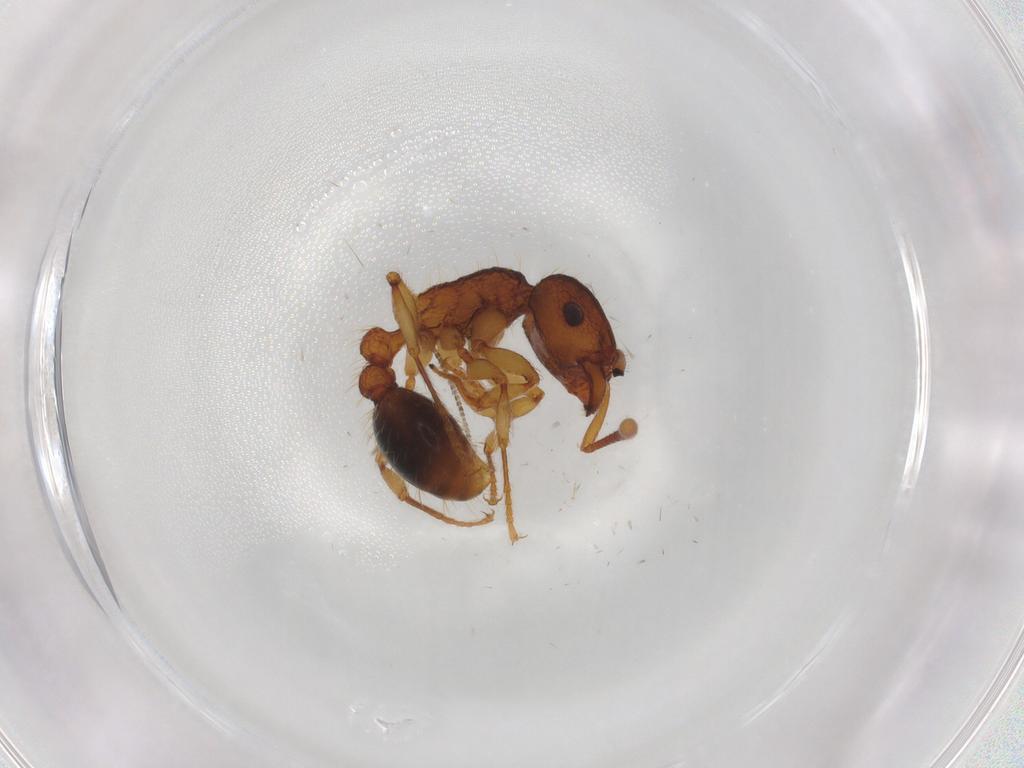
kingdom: Animalia
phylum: Arthropoda
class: Insecta
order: Hymenoptera
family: Formicidae
